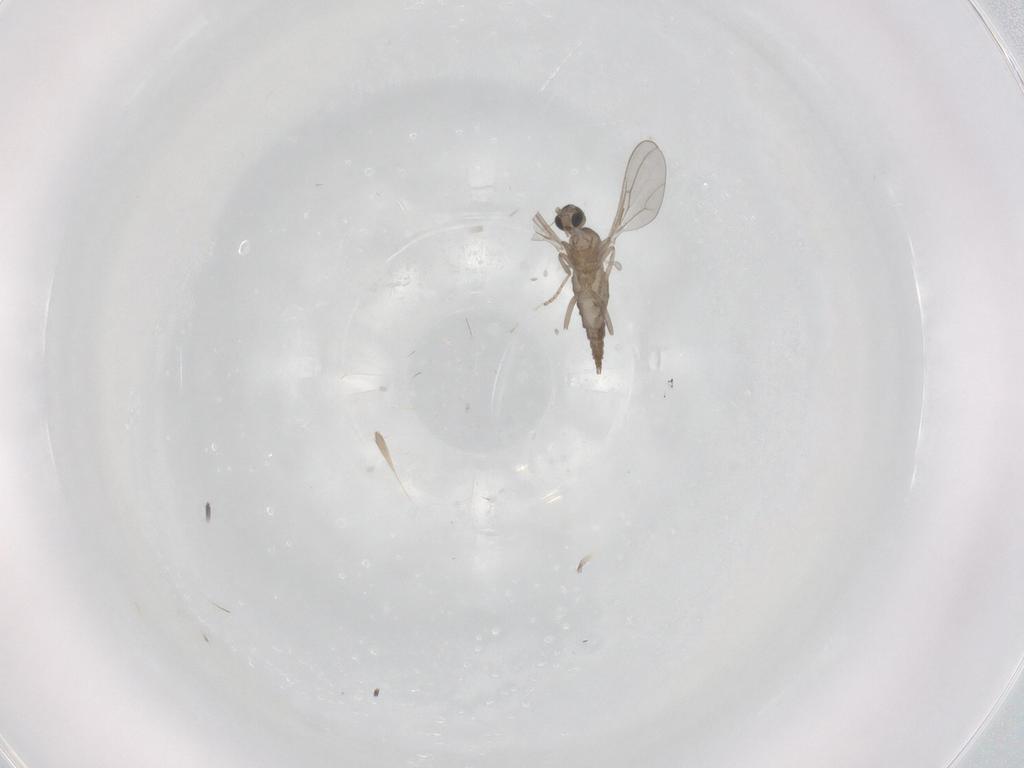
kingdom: Animalia
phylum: Arthropoda
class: Insecta
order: Diptera
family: Cecidomyiidae
